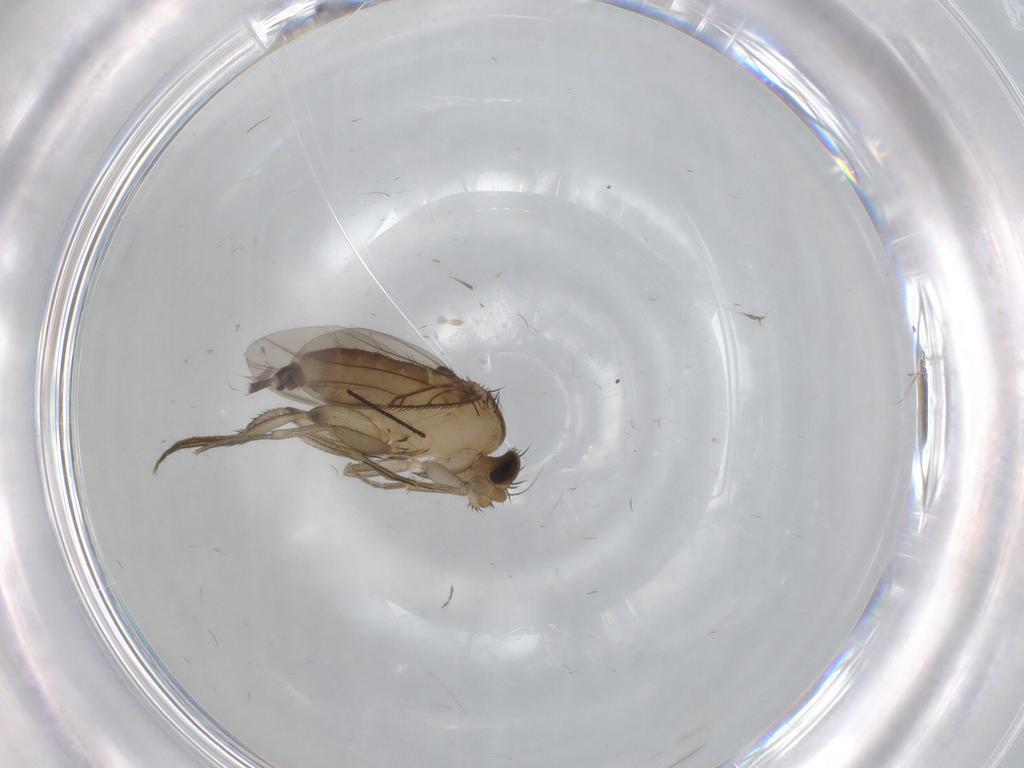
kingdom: Animalia
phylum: Arthropoda
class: Insecta
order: Diptera
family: Phoridae
